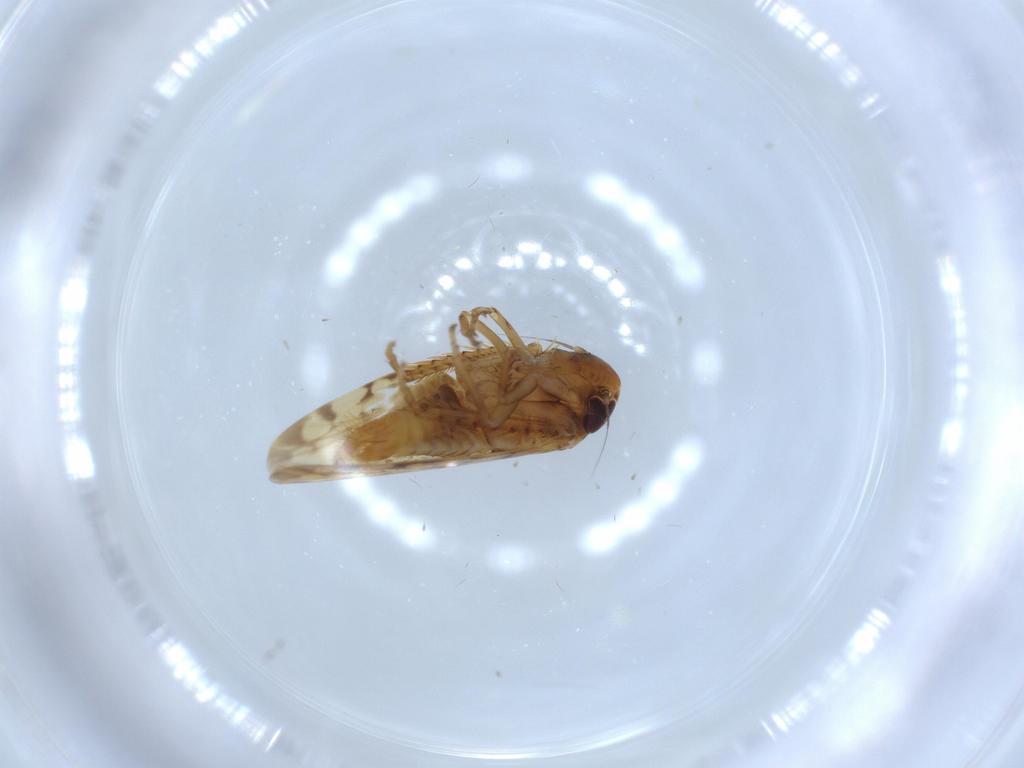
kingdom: Animalia
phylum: Arthropoda
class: Insecta
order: Hemiptera
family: Cicadellidae
